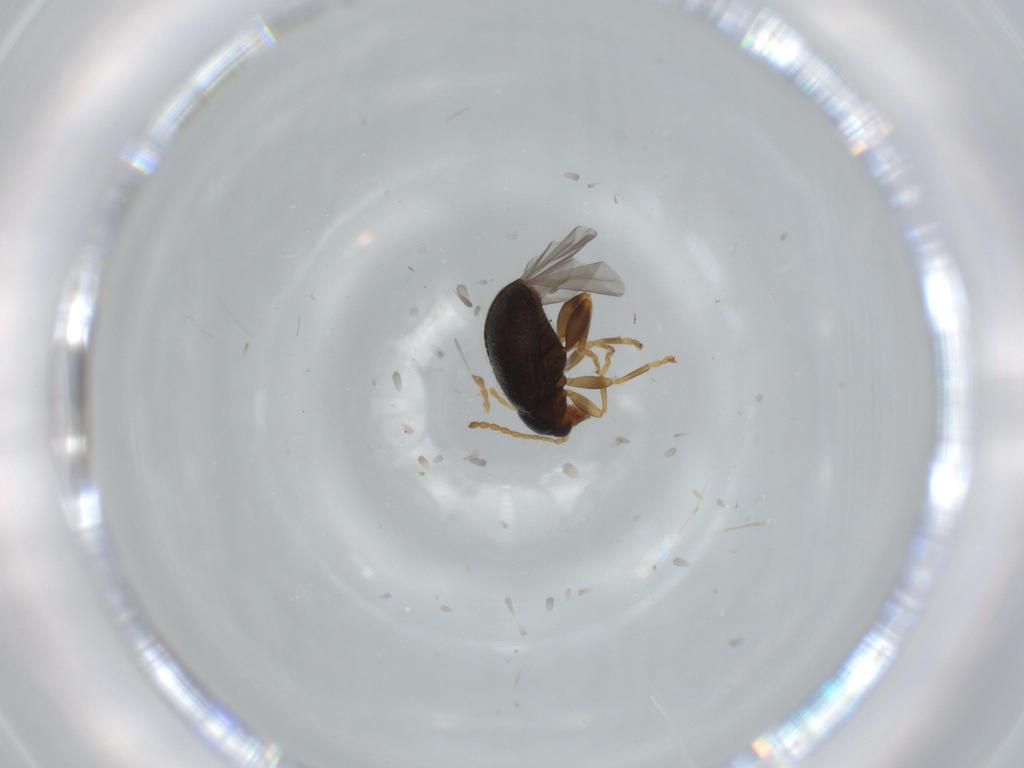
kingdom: Animalia
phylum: Arthropoda
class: Insecta
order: Coleoptera
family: Chrysomelidae
